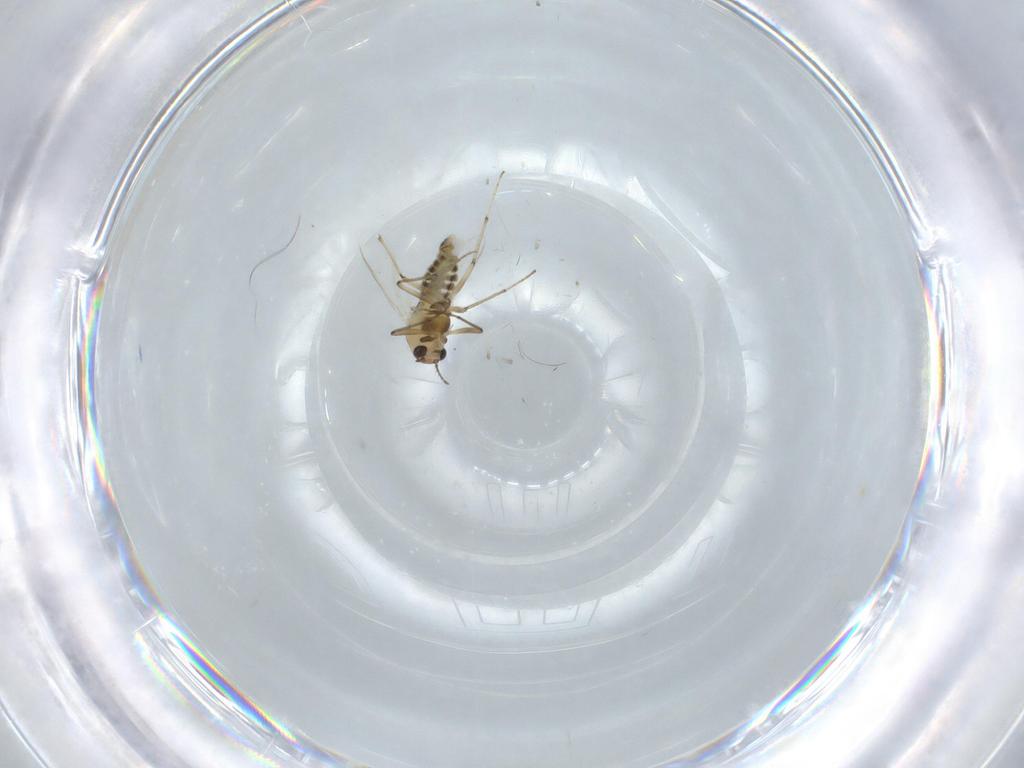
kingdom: Animalia
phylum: Arthropoda
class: Insecta
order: Diptera
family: Chironomidae
